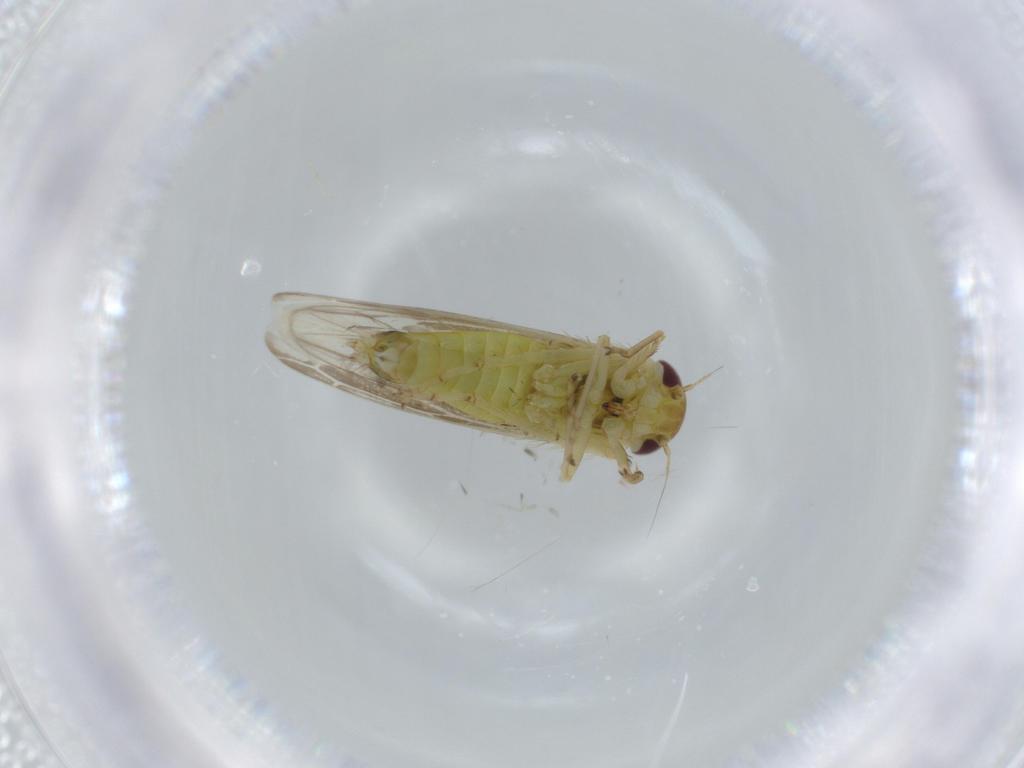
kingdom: Animalia
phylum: Arthropoda
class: Insecta
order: Hemiptera
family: Cicadellidae
